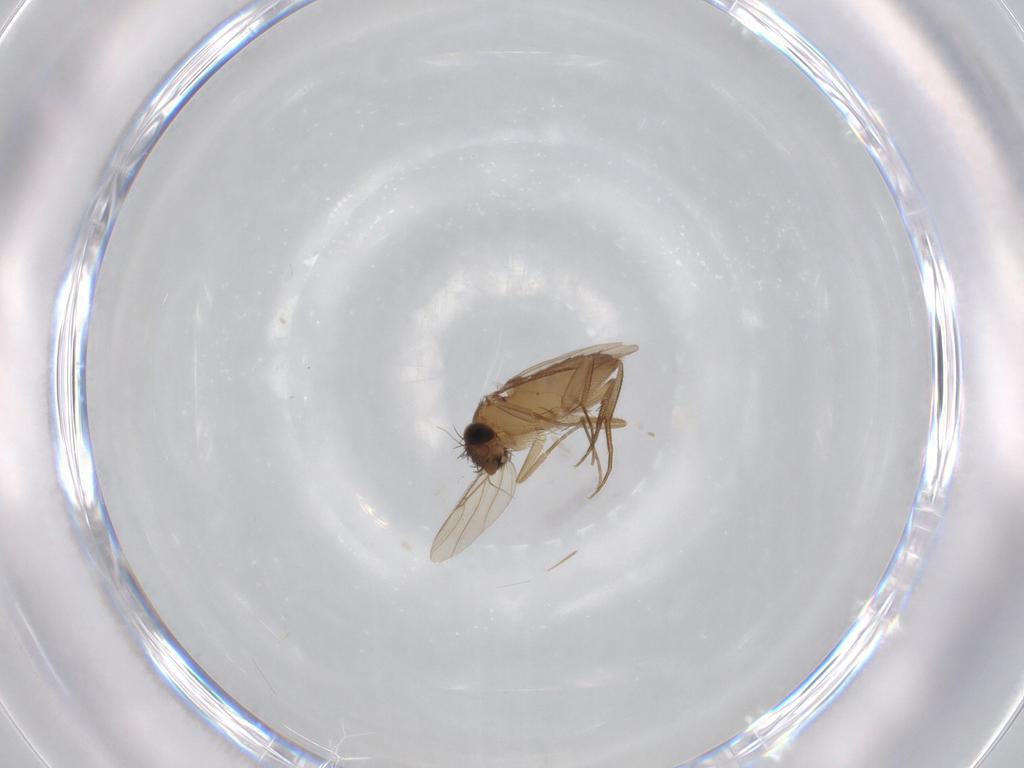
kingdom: Animalia
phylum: Arthropoda
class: Insecta
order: Diptera
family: Phoridae
